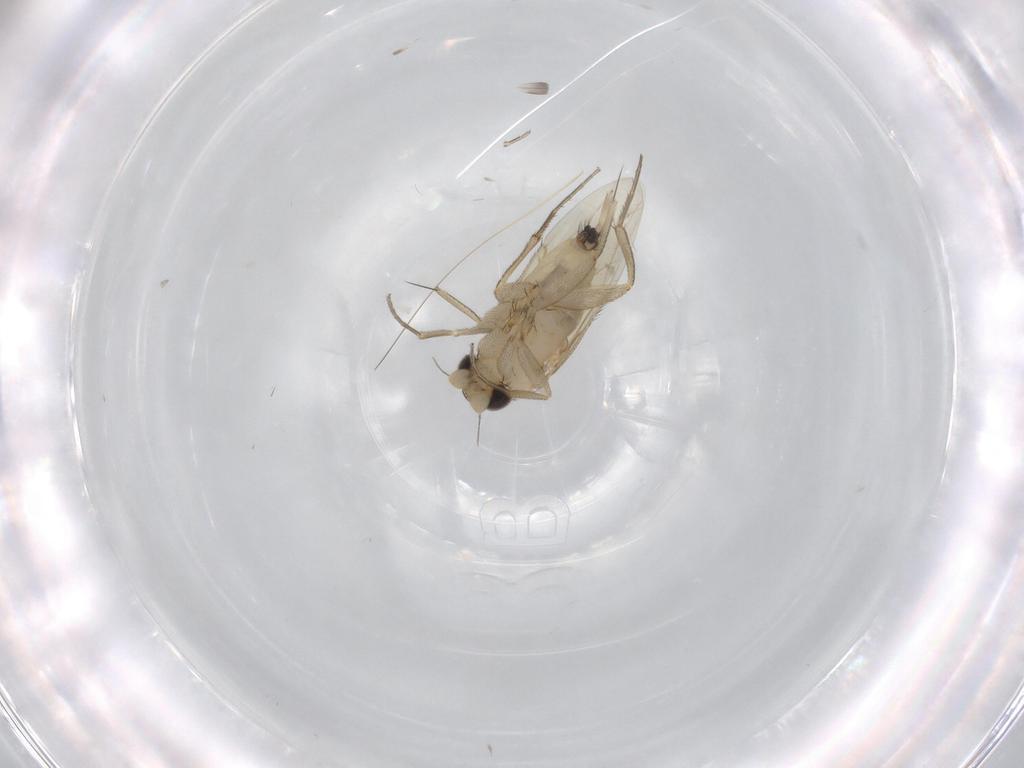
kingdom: Animalia
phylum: Arthropoda
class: Insecta
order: Diptera
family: Phoridae
